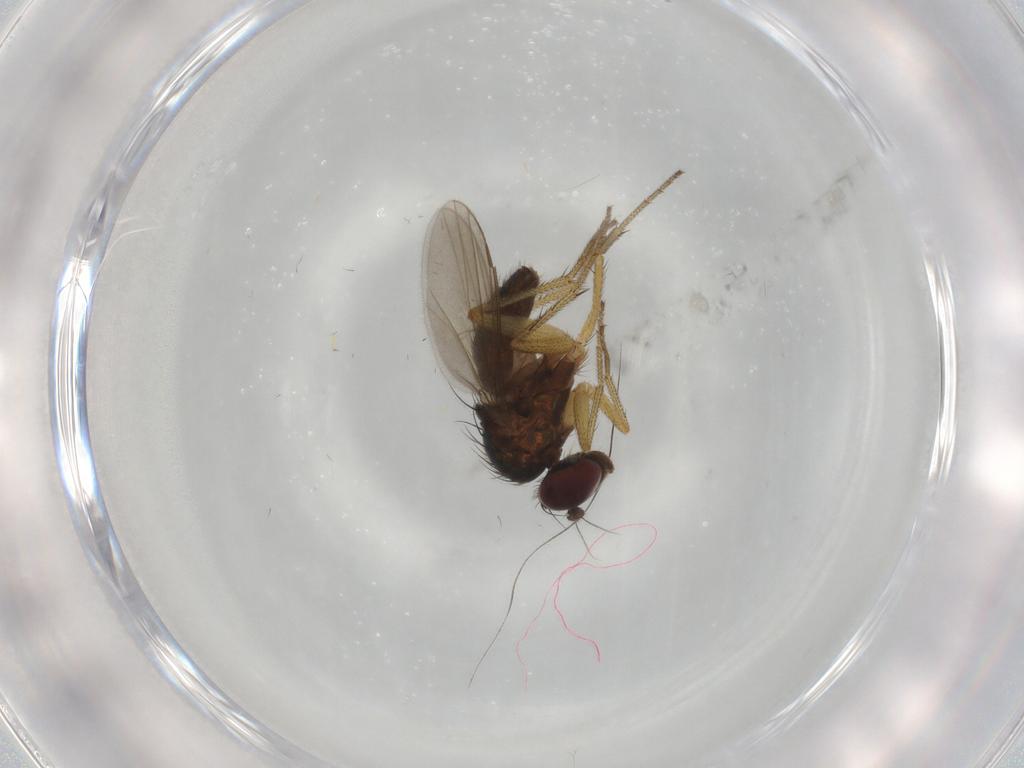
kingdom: Animalia
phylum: Arthropoda
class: Insecta
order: Diptera
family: Dolichopodidae
